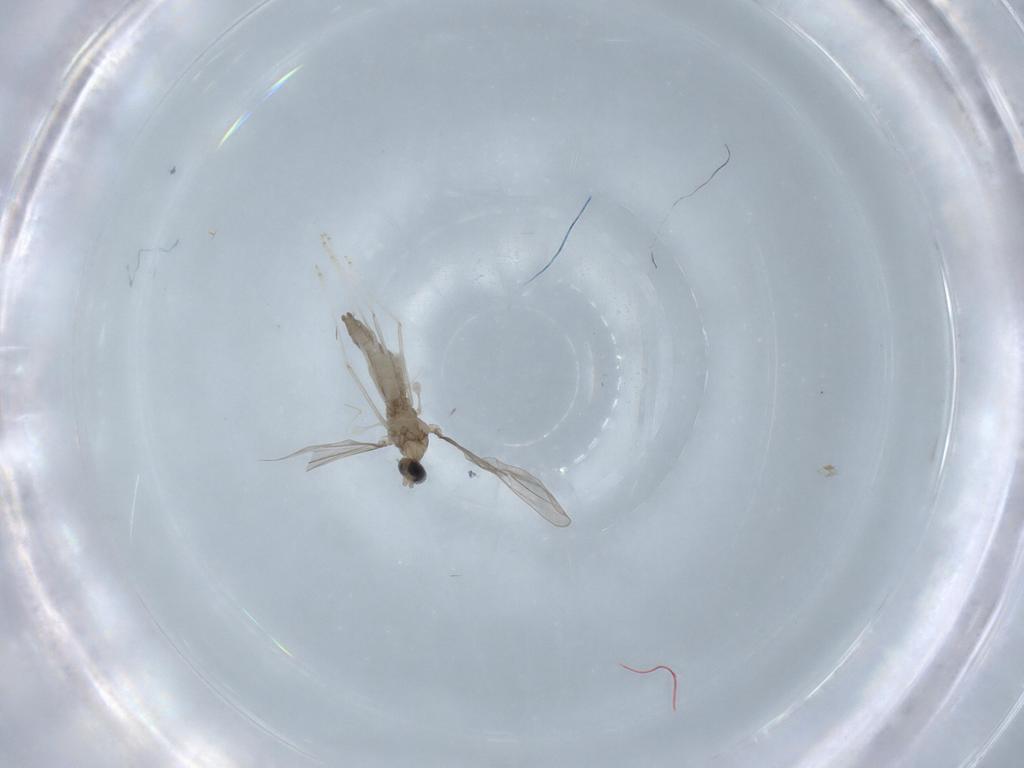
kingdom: Animalia
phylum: Arthropoda
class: Insecta
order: Diptera
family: Cecidomyiidae
